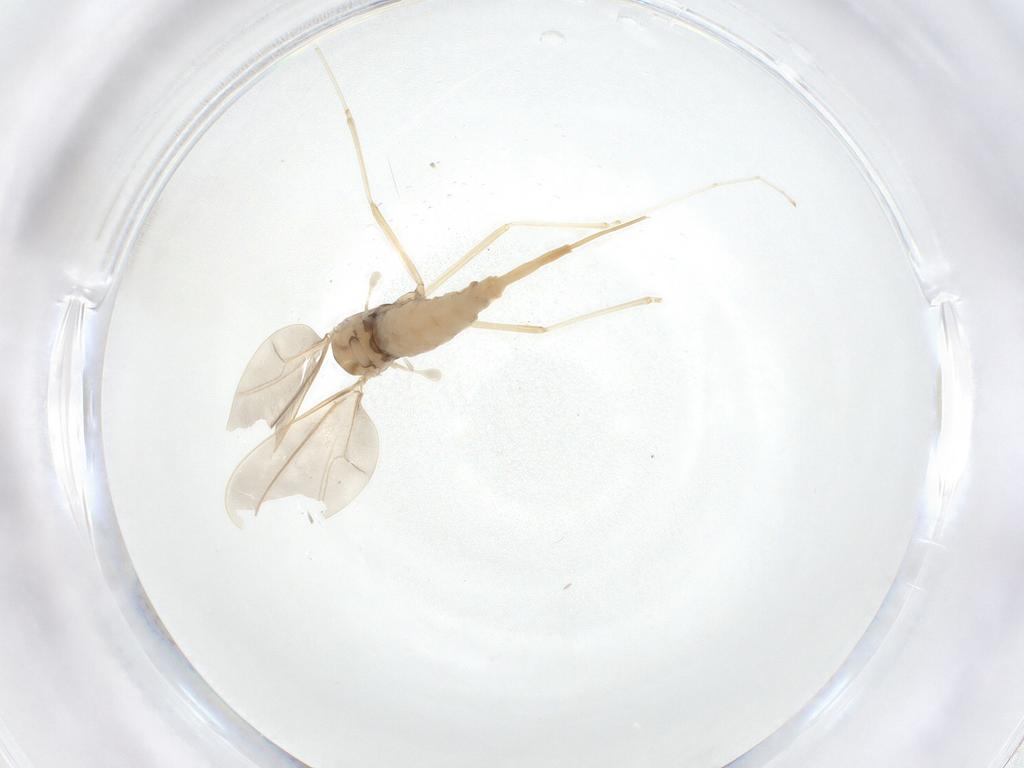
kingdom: Animalia
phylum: Arthropoda
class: Insecta
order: Diptera
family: Cecidomyiidae
